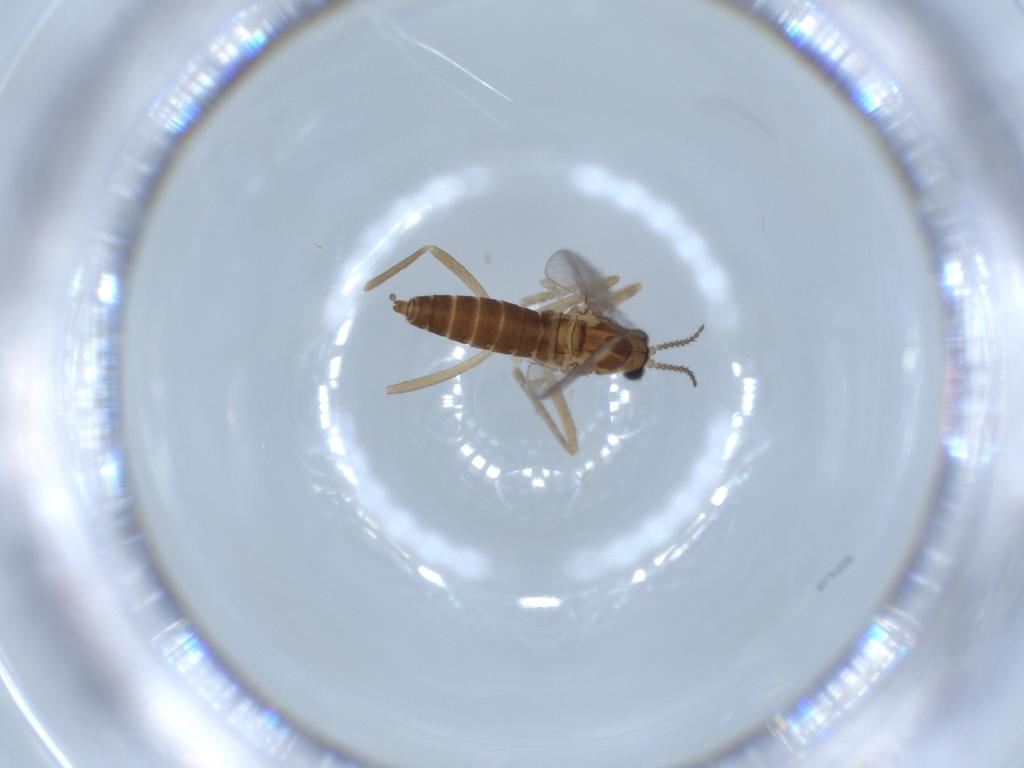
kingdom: Animalia
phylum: Arthropoda
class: Insecta
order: Diptera
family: Cecidomyiidae
